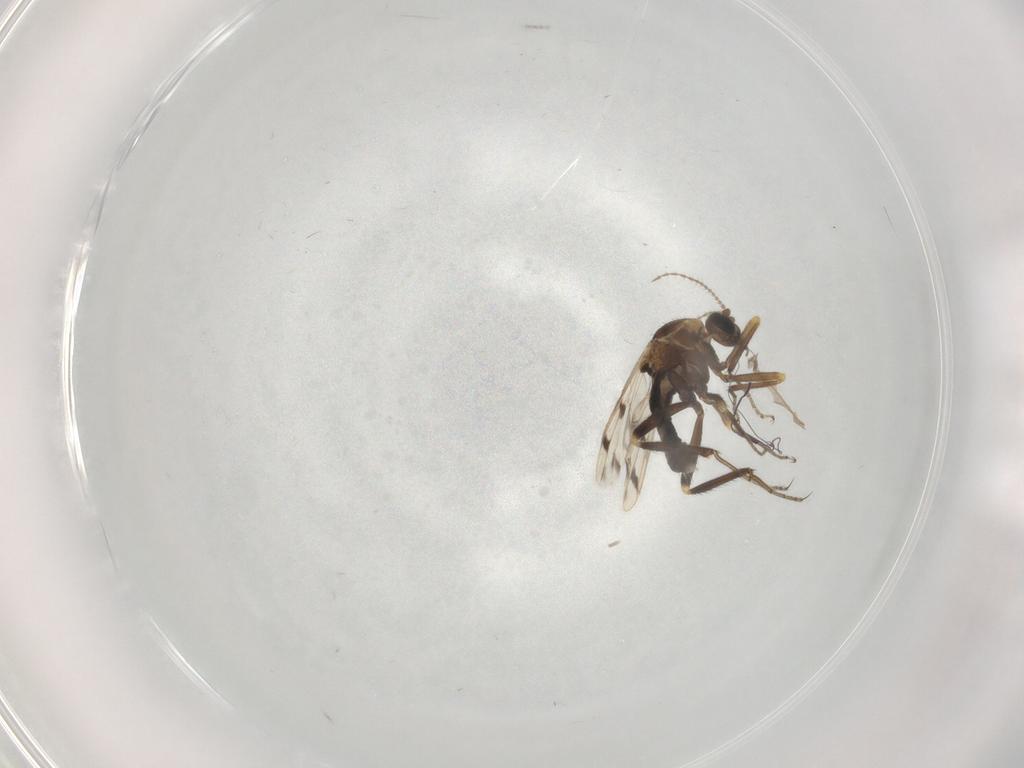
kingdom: Animalia
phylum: Arthropoda
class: Insecta
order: Diptera
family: Ceratopogonidae
